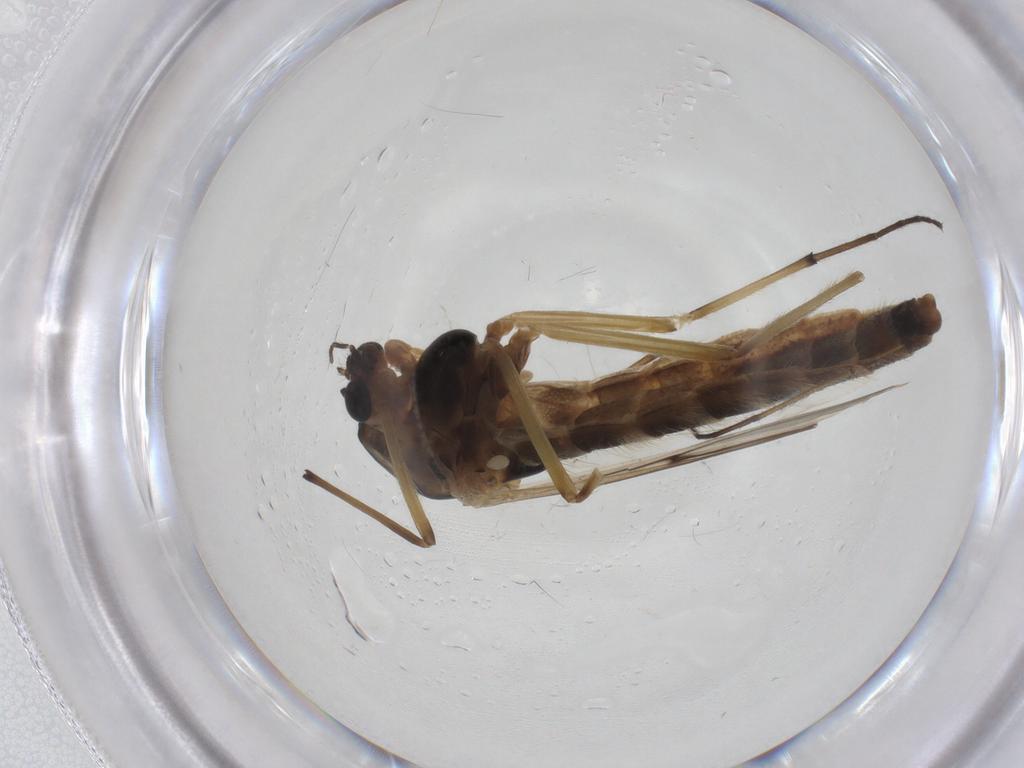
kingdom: Animalia
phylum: Arthropoda
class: Insecta
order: Diptera
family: Chironomidae
